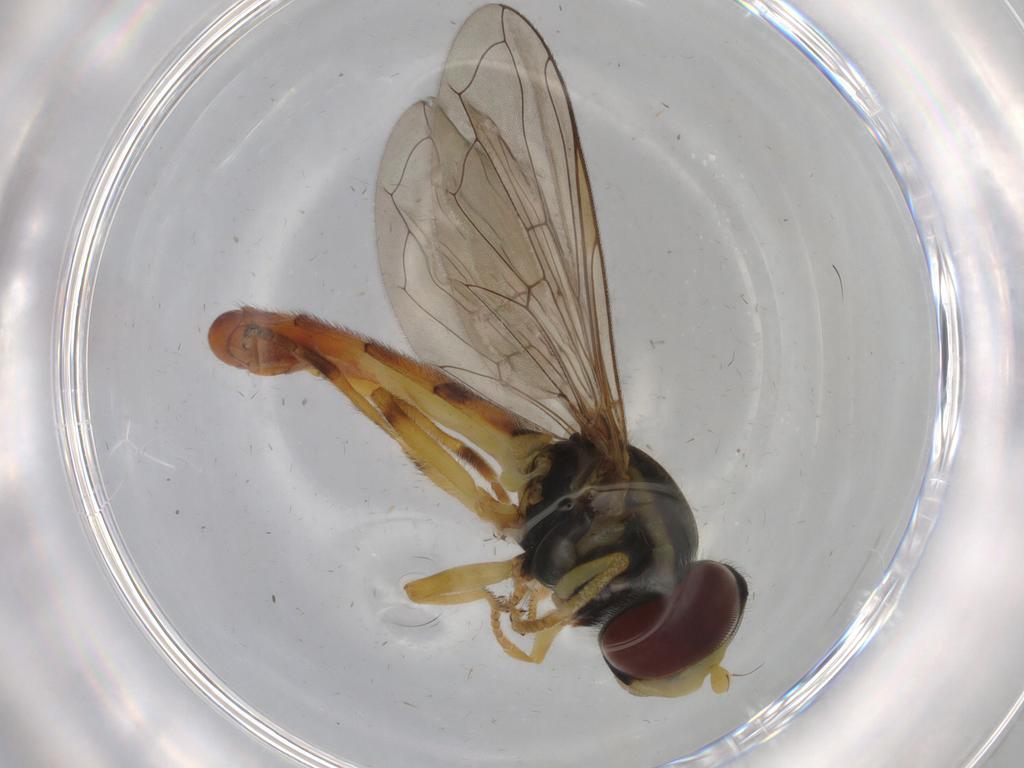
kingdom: Animalia
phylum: Arthropoda
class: Insecta
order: Diptera
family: Syrphidae
